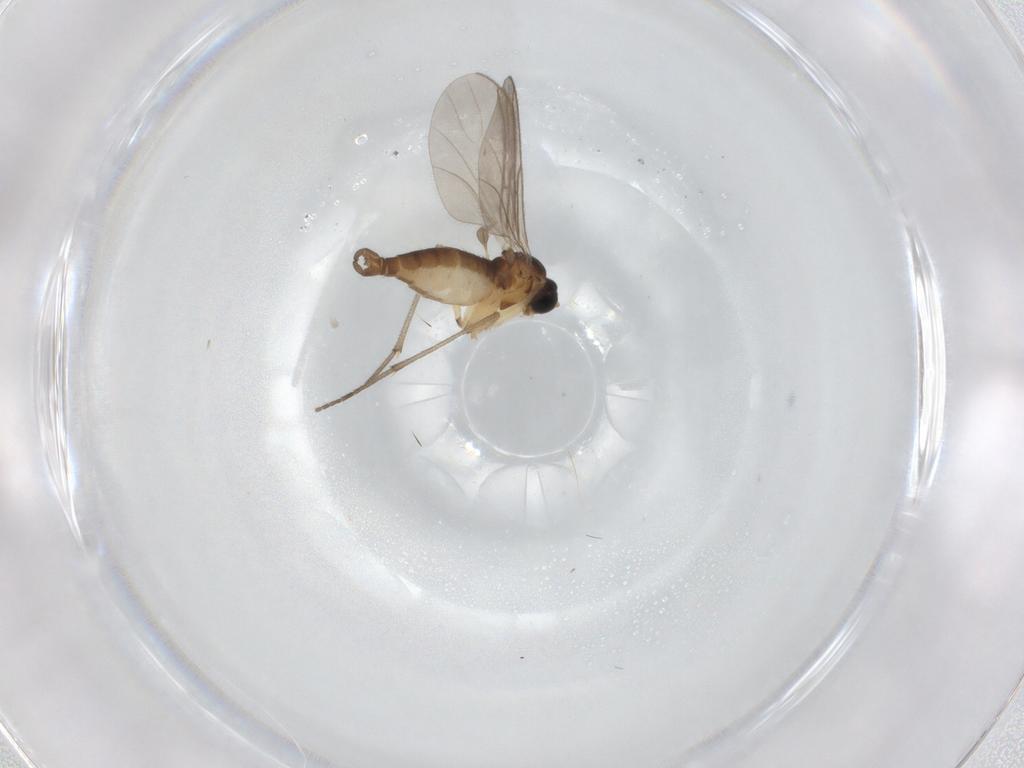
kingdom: Animalia
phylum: Arthropoda
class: Insecta
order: Diptera
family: Sciaridae
